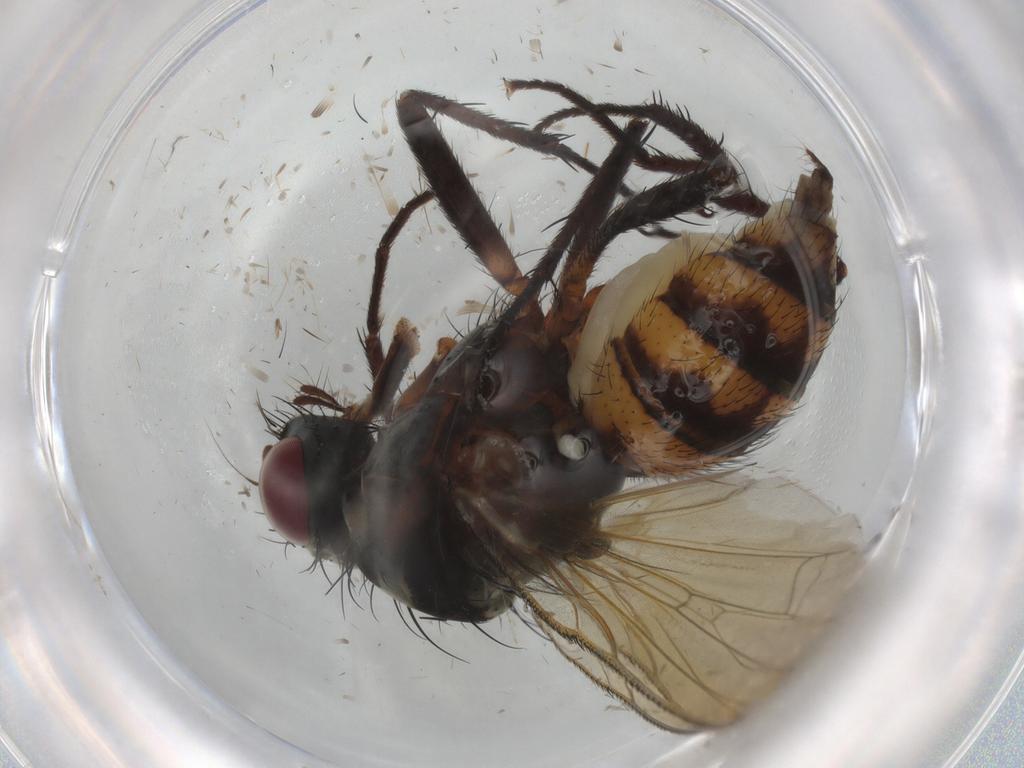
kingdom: Animalia
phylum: Arthropoda
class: Insecta
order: Diptera
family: Anthomyiidae
